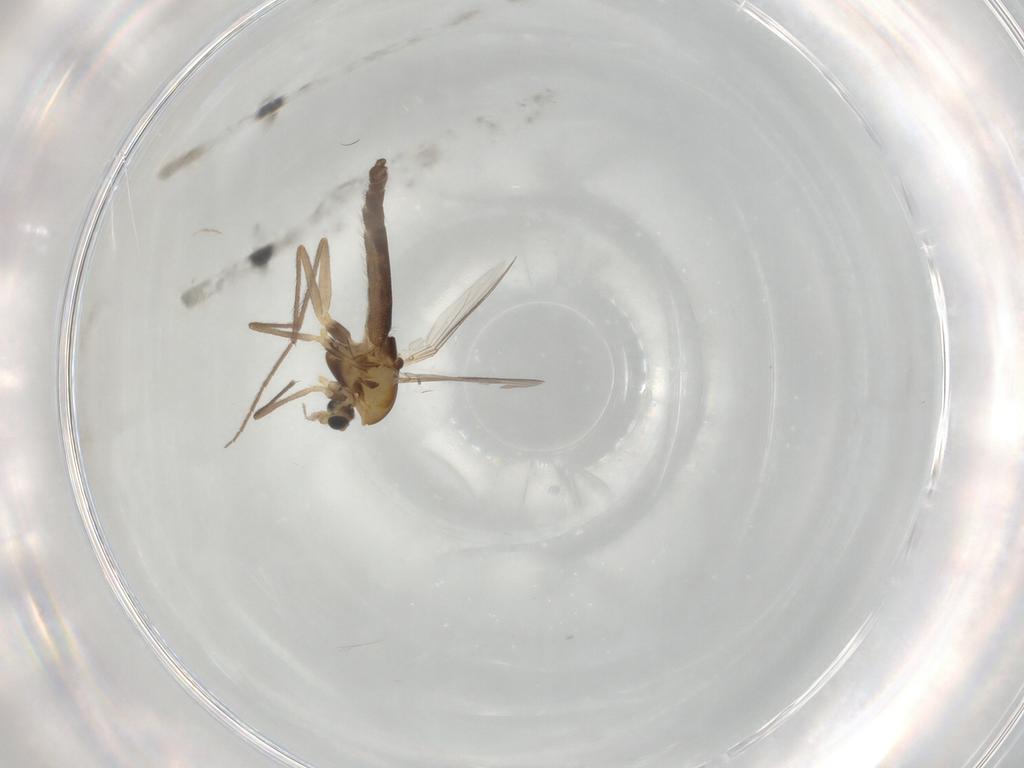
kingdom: Animalia
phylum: Arthropoda
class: Insecta
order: Diptera
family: Chironomidae
